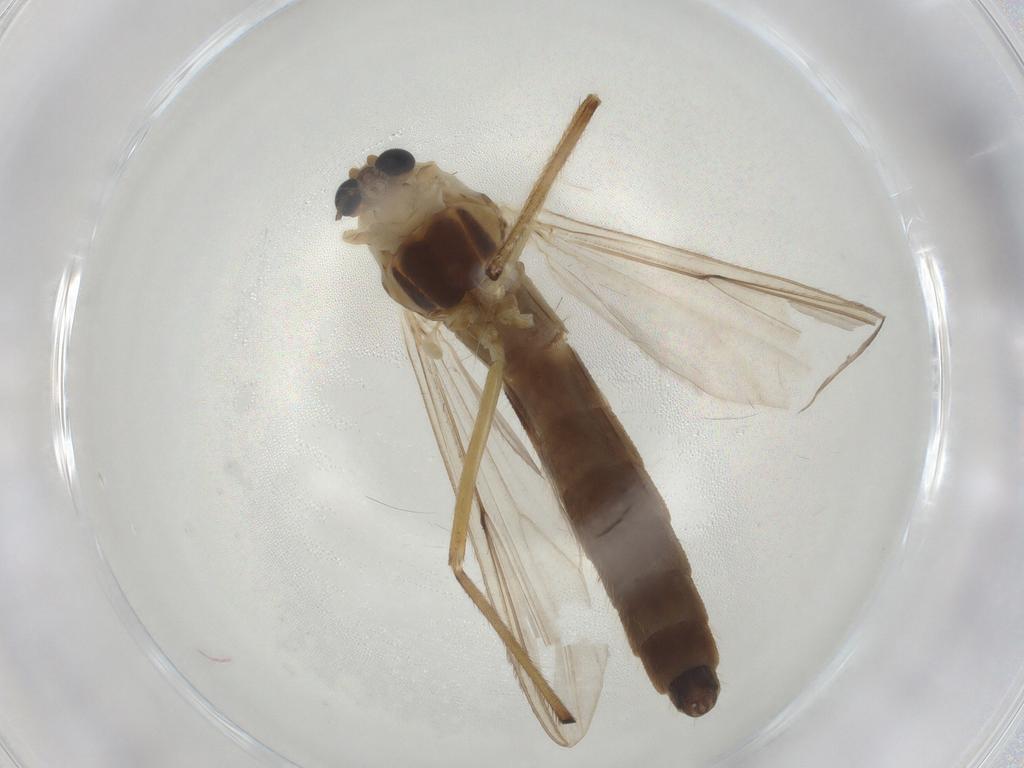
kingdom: Animalia
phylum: Arthropoda
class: Insecta
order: Diptera
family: Chironomidae
